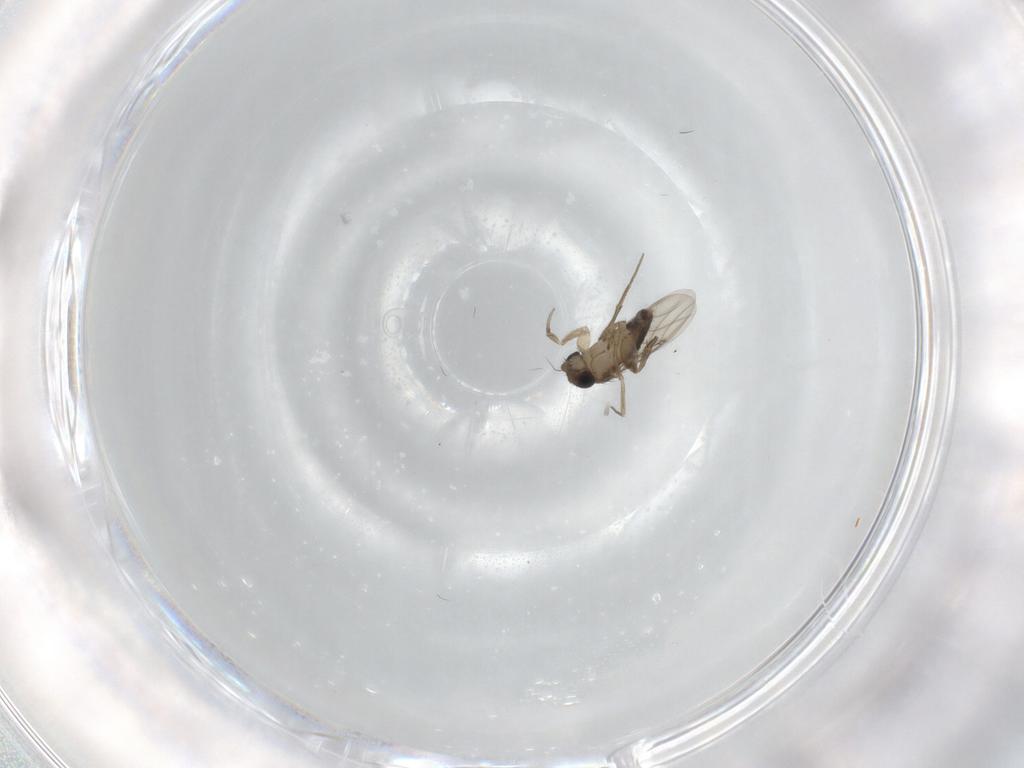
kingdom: Animalia
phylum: Arthropoda
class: Insecta
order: Diptera
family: Phoridae
